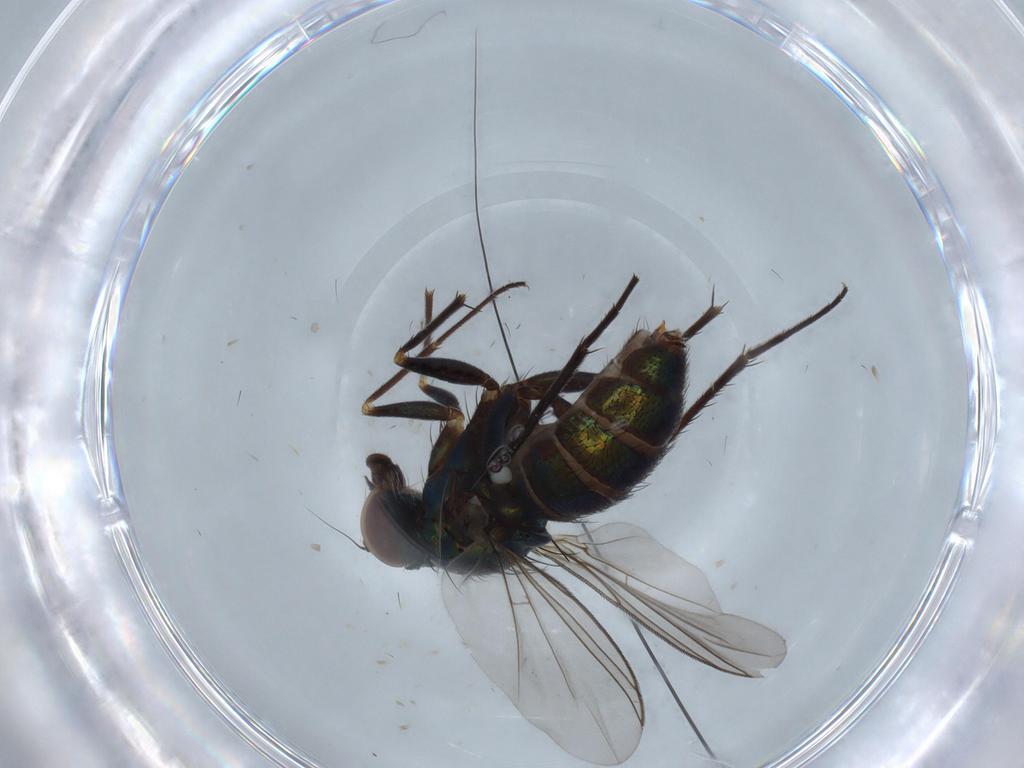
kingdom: Animalia
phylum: Arthropoda
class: Insecta
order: Diptera
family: Dolichopodidae
